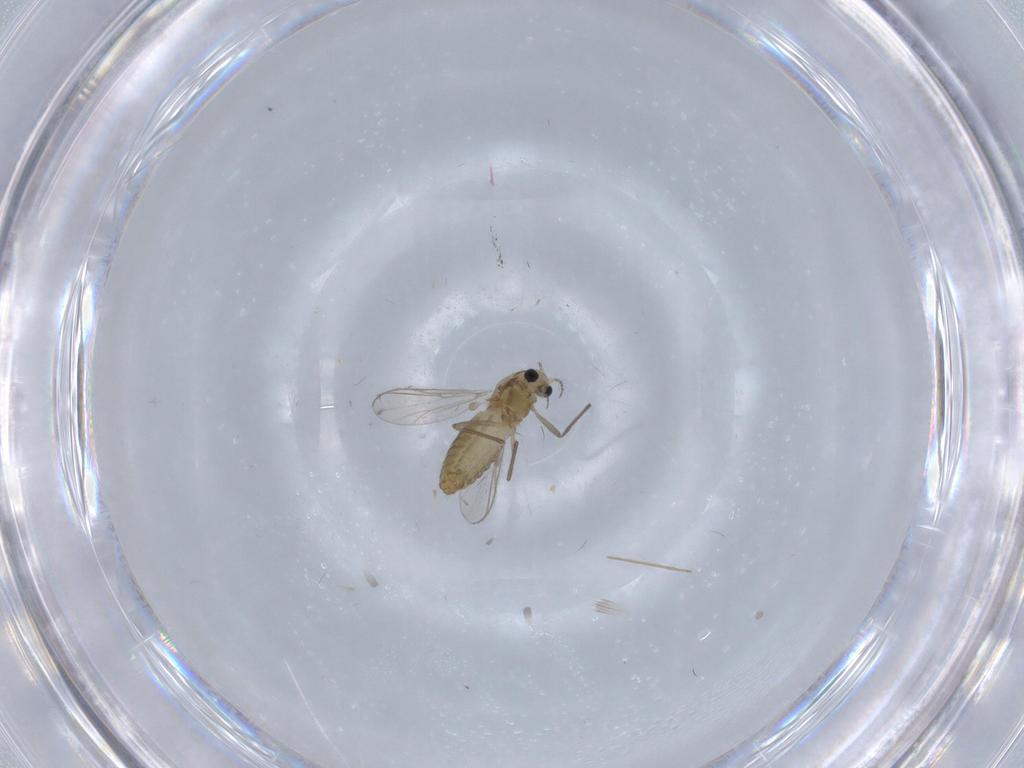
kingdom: Animalia
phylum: Arthropoda
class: Insecta
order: Diptera
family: Chironomidae
